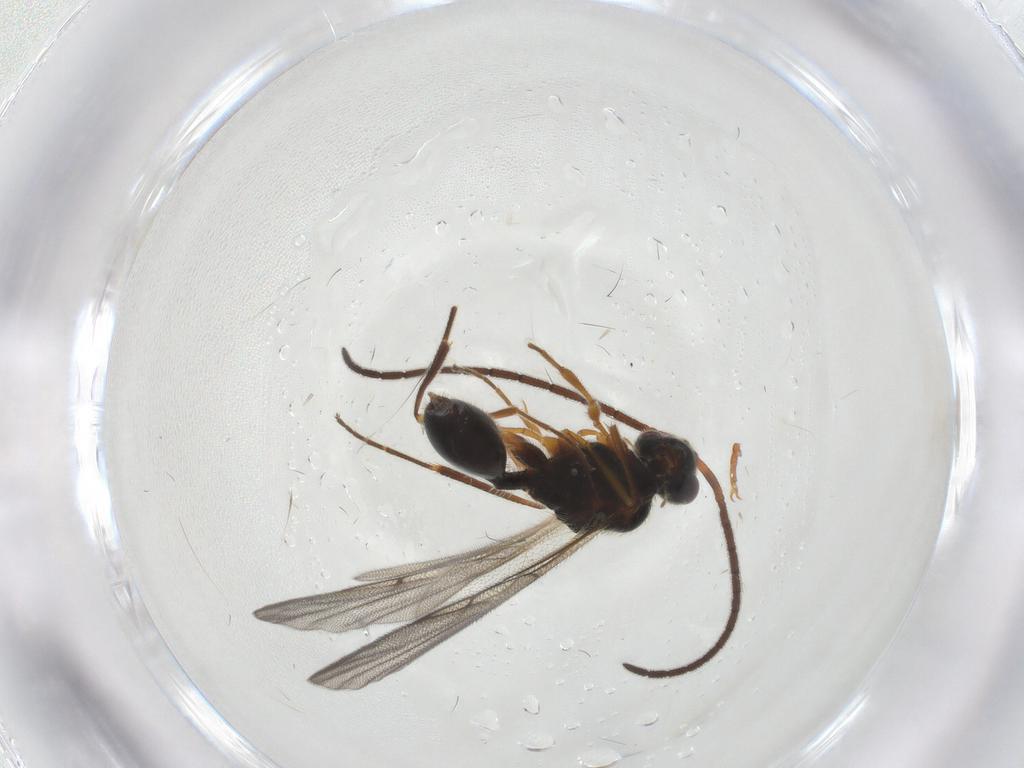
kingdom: Animalia
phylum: Arthropoda
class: Insecta
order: Hymenoptera
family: Diapriidae
